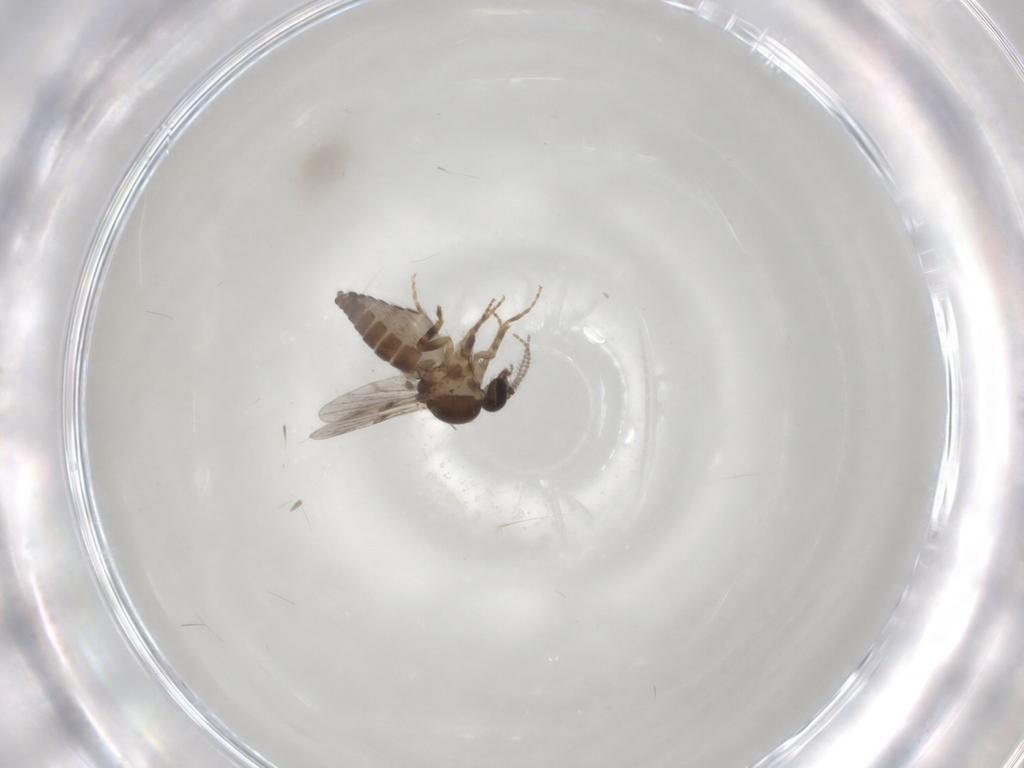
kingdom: Animalia
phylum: Arthropoda
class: Insecta
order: Diptera
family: Ceratopogonidae
